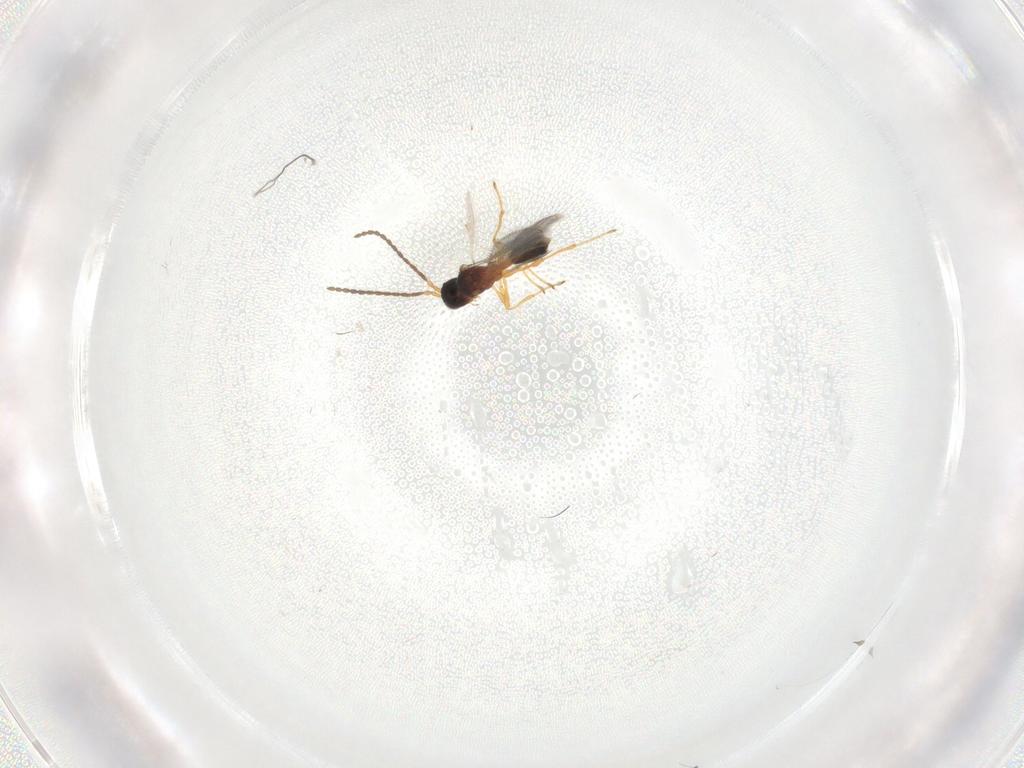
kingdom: Animalia
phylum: Arthropoda
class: Insecta
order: Hymenoptera
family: Diapriidae
